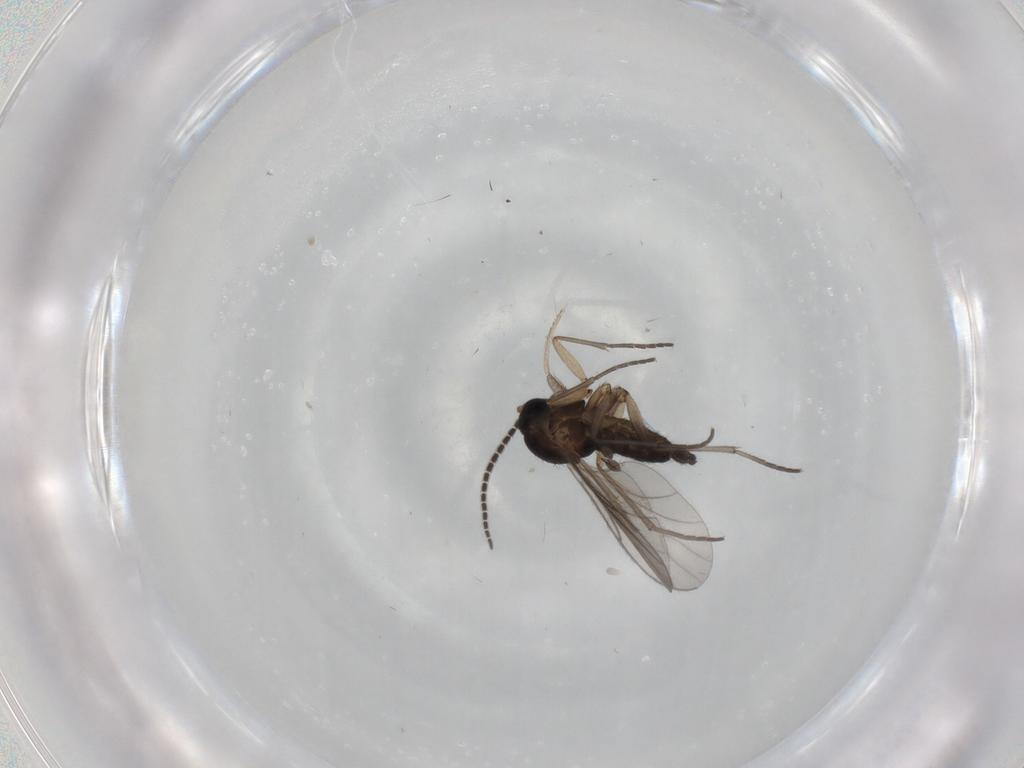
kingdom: Animalia
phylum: Arthropoda
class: Insecta
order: Diptera
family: Sciaridae
